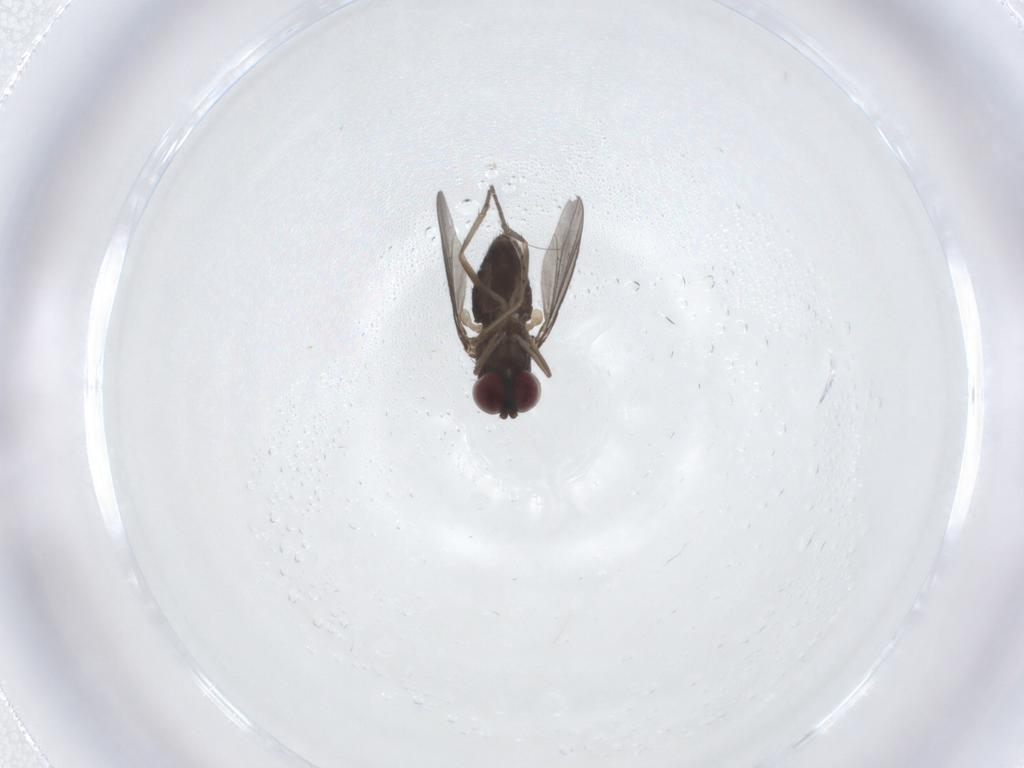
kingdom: Animalia
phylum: Arthropoda
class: Insecta
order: Diptera
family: Dolichopodidae
